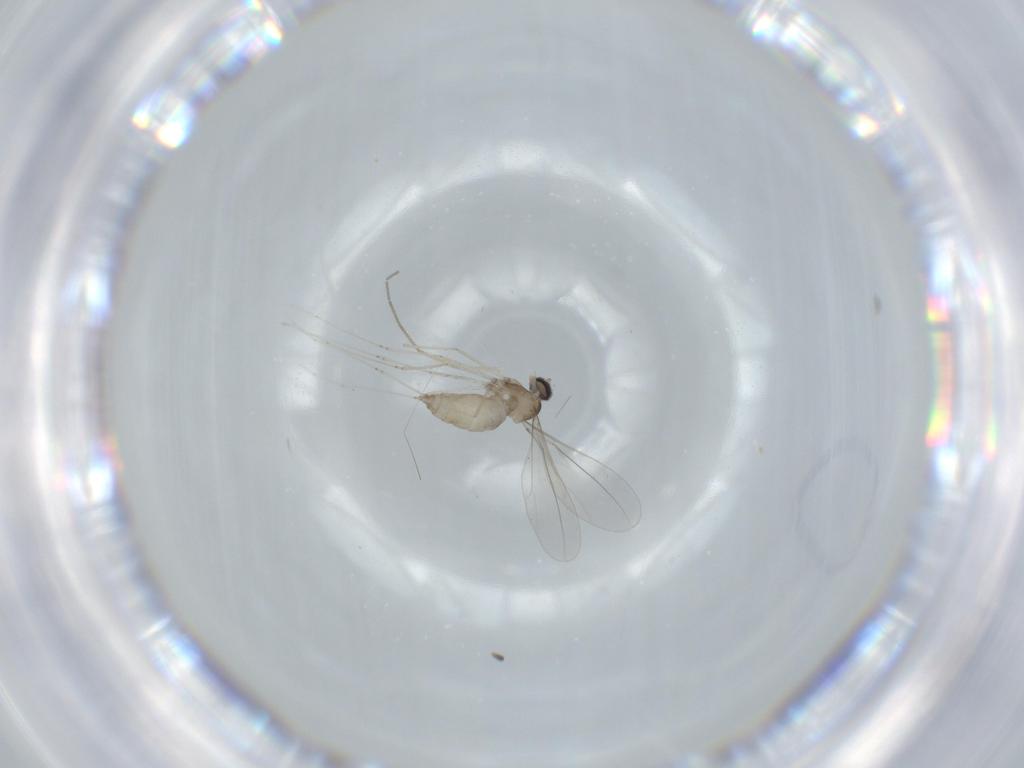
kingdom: Animalia
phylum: Arthropoda
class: Insecta
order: Diptera
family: Cecidomyiidae
